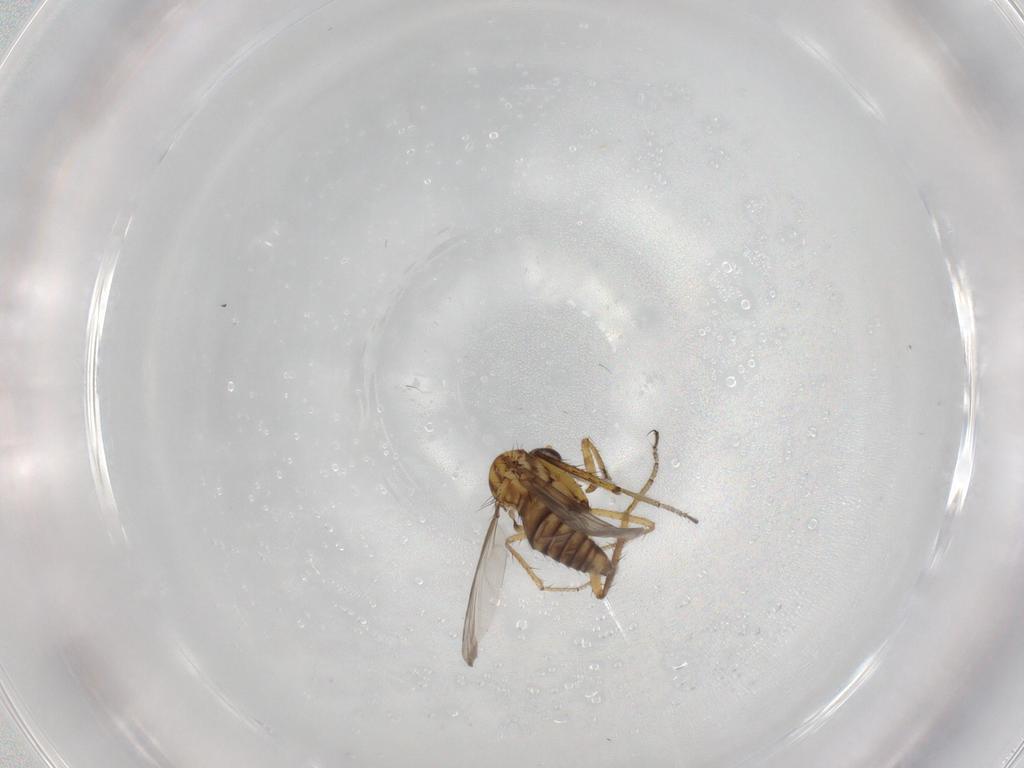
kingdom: Animalia
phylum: Arthropoda
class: Insecta
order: Diptera
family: Ceratopogonidae
